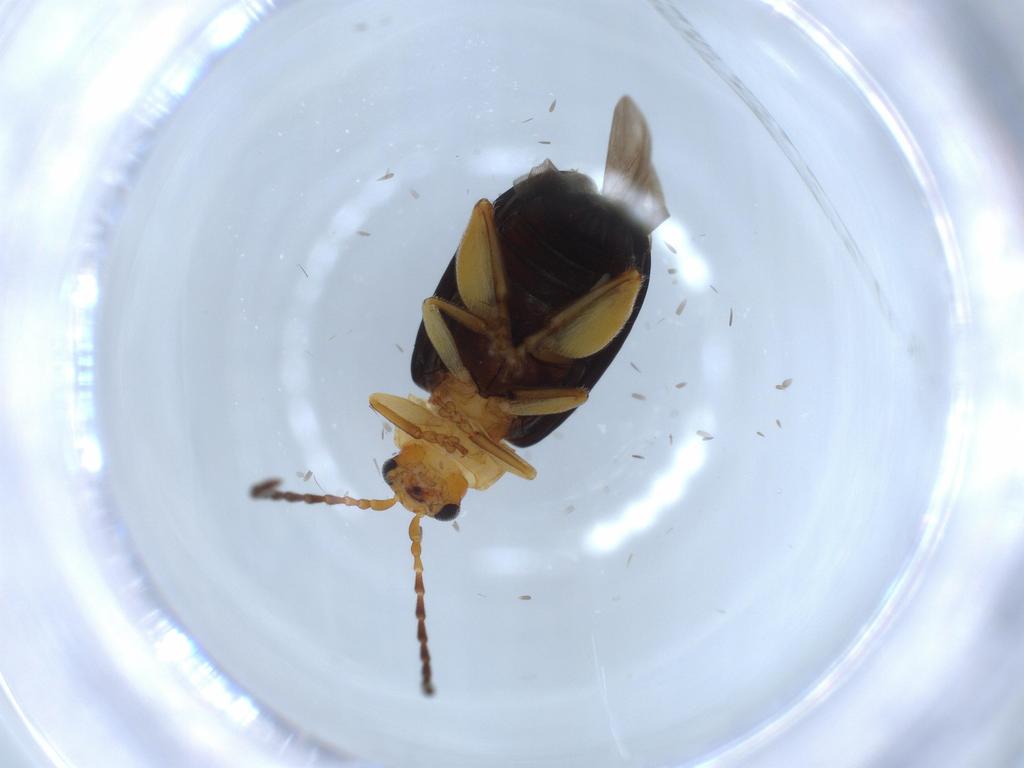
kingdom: Animalia
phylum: Arthropoda
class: Insecta
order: Coleoptera
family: Chrysomelidae
